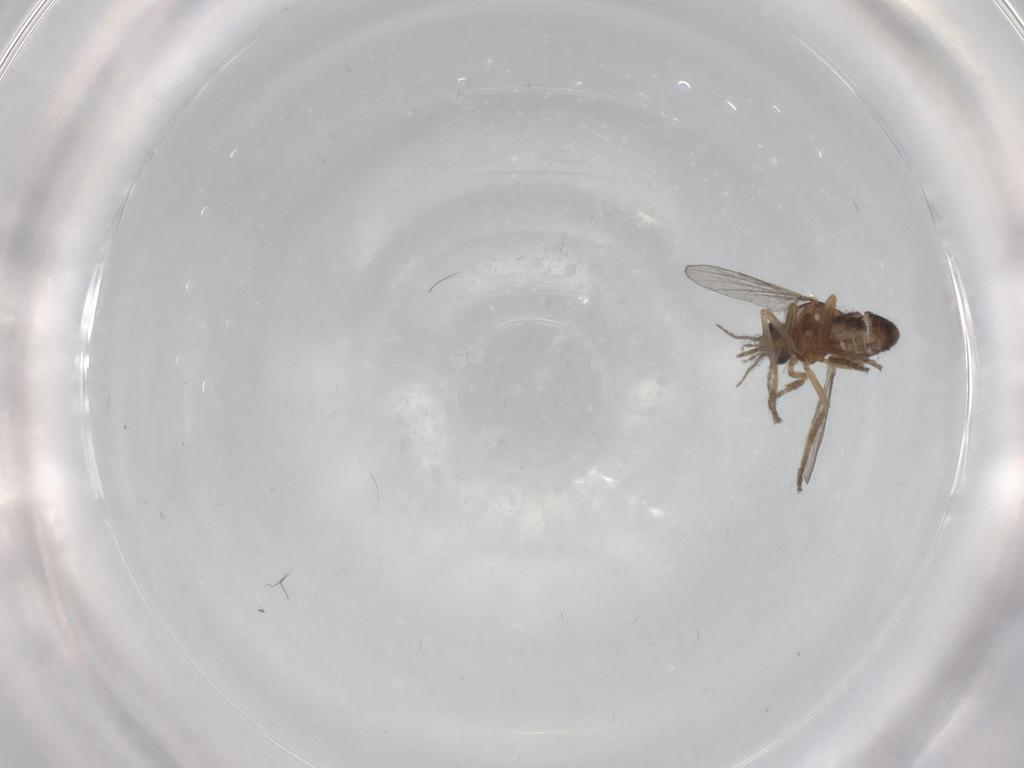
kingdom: Animalia
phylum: Arthropoda
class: Insecta
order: Diptera
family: Ceratopogonidae
